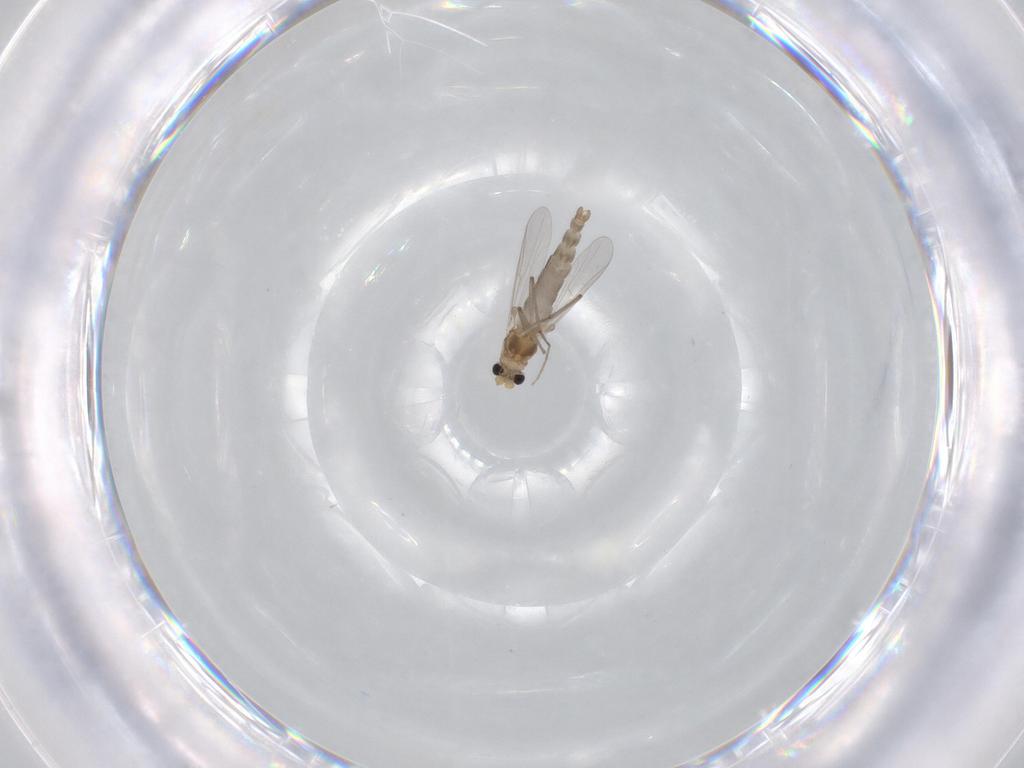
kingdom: Animalia
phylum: Arthropoda
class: Insecta
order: Diptera
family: Chironomidae
